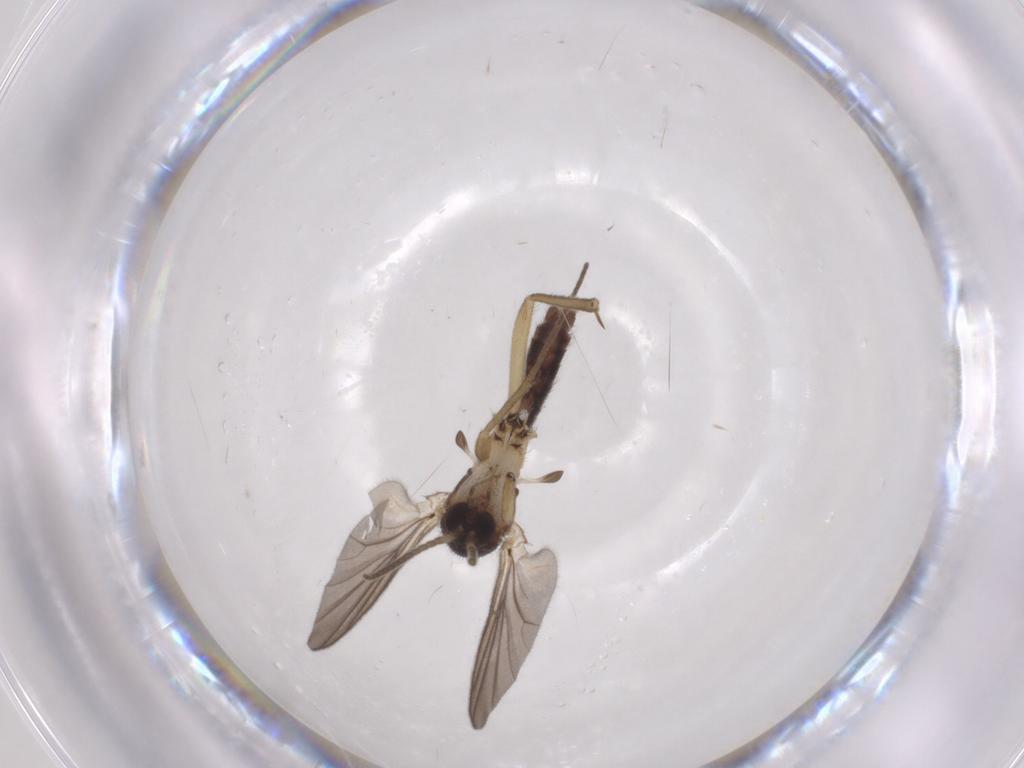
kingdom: Animalia
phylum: Arthropoda
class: Insecta
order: Diptera
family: Mycetophilidae
